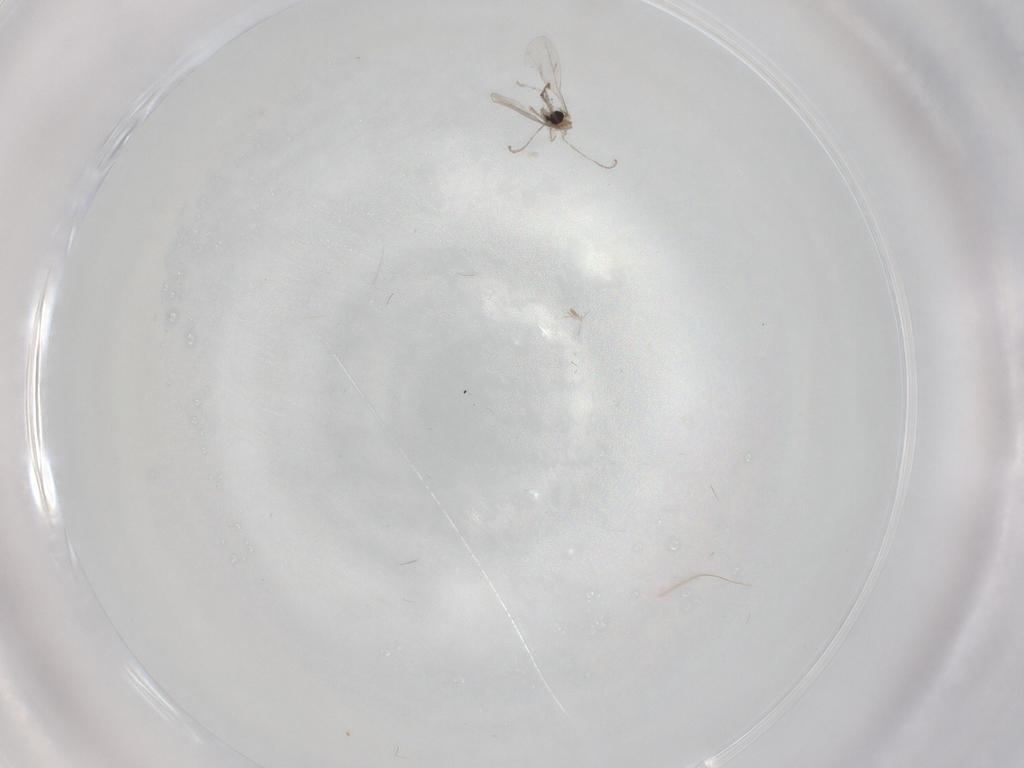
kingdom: Animalia
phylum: Arthropoda
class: Insecta
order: Diptera
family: Chironomidae
